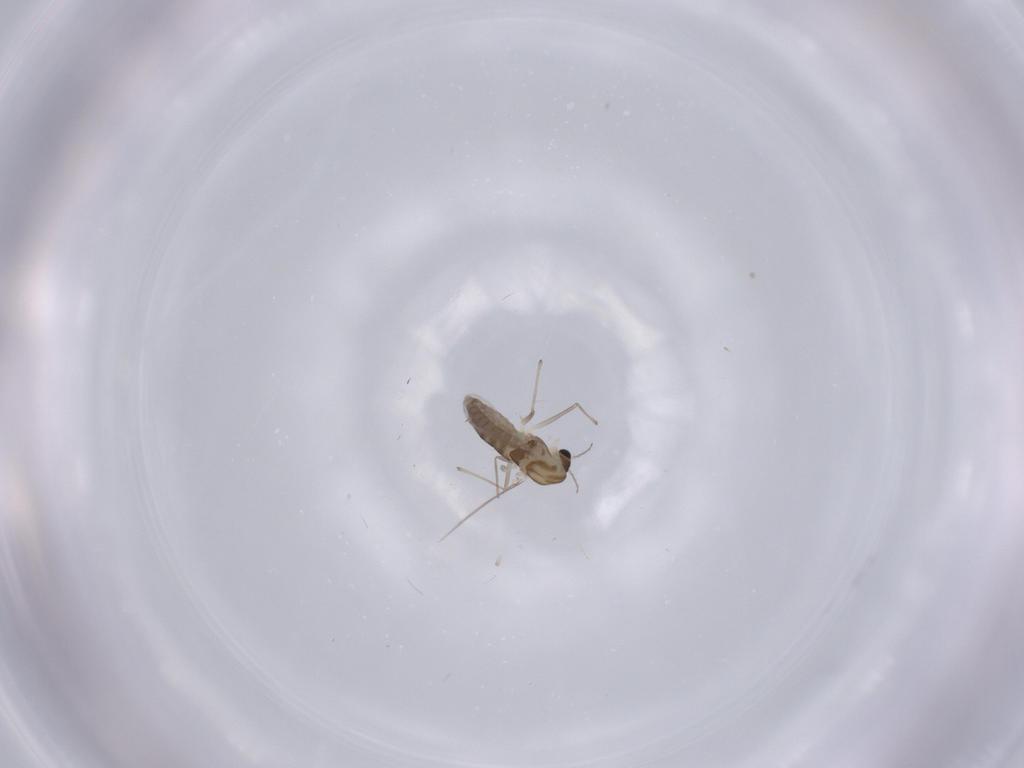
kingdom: Animalia
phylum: Arthropoda
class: Insecta
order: Diptera
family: Chironomidae
